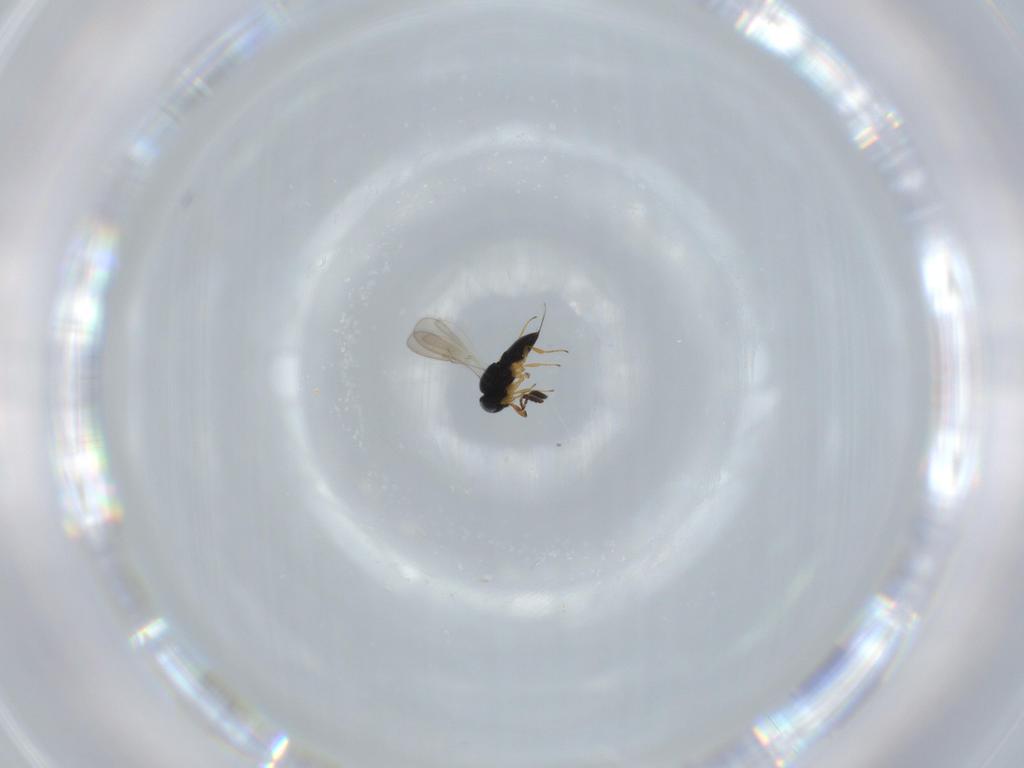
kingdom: Animalia
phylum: Arthropoda
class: Insecta
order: Hymenoptera
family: Scelionidae
